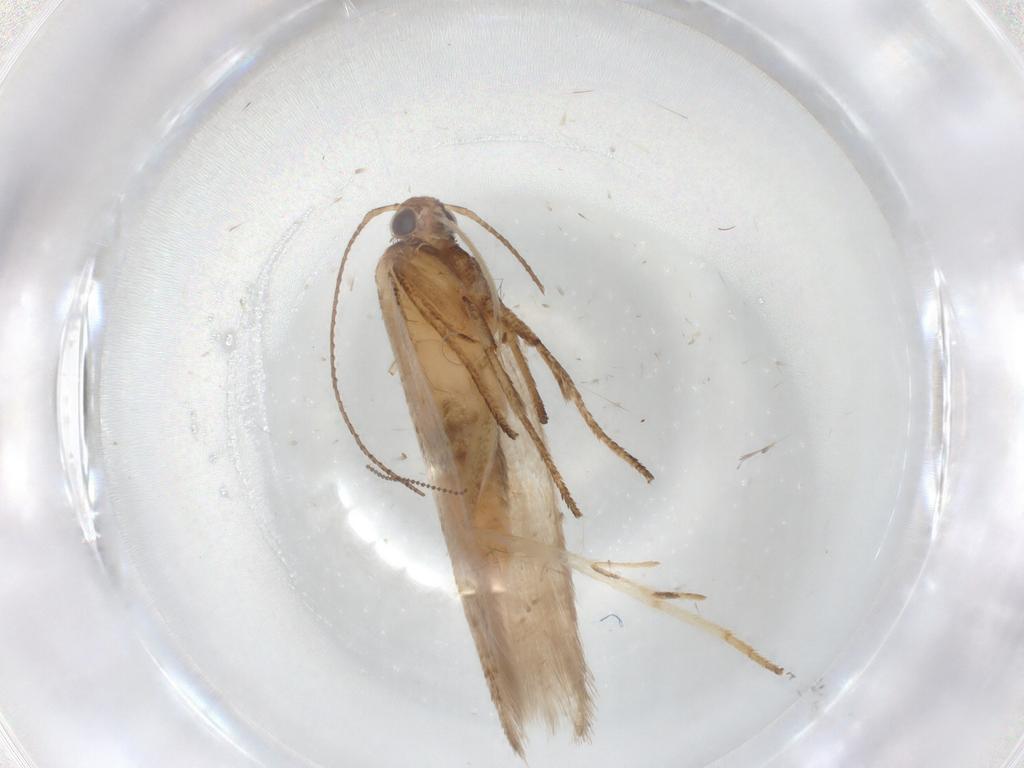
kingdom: Animalia
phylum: Arthropoda
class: Insecta
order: Lepidoptera
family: Gelechiidae
